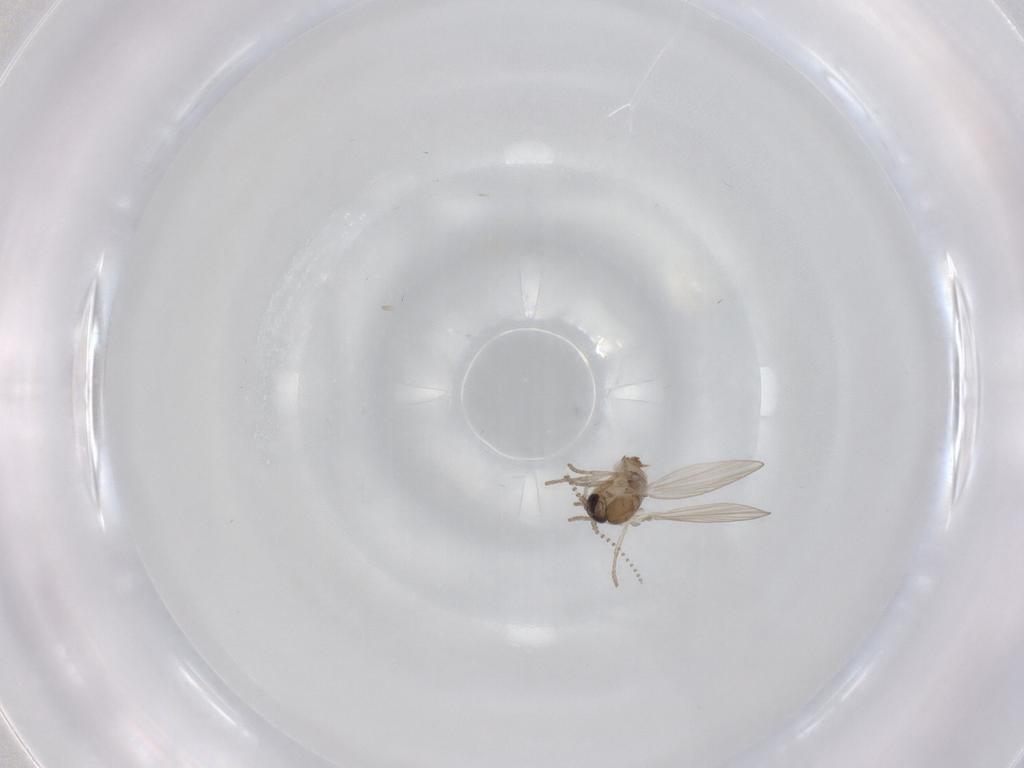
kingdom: Animalia
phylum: Arthropoda
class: Insecta
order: Diptera
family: Psychodidae
